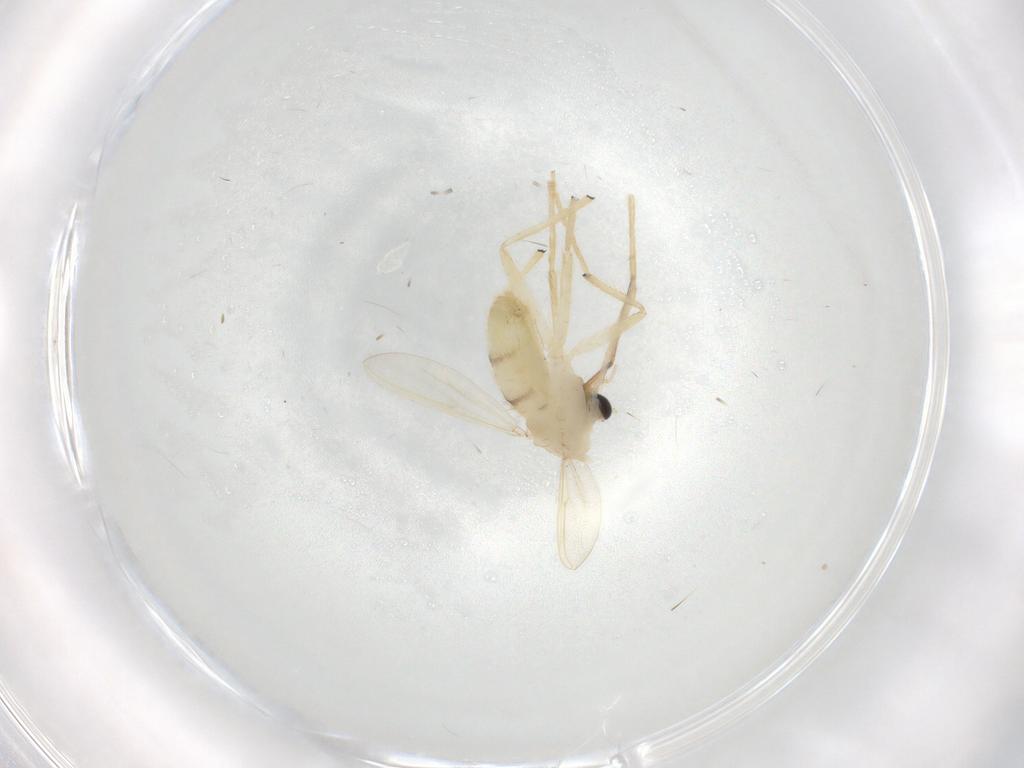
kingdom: Animalia
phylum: Arthropoda
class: Insecta
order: Diptera
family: Chironomidae
